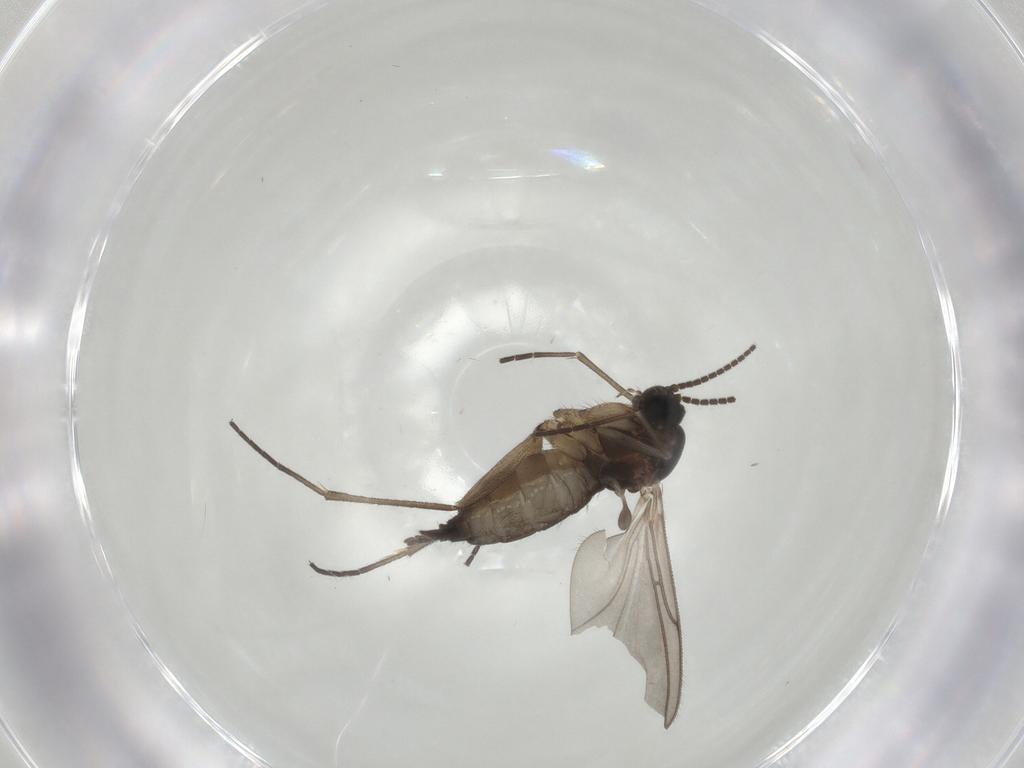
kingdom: Animalia
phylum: Arthropoda
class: Insecta
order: Diptera
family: Sciaridae
